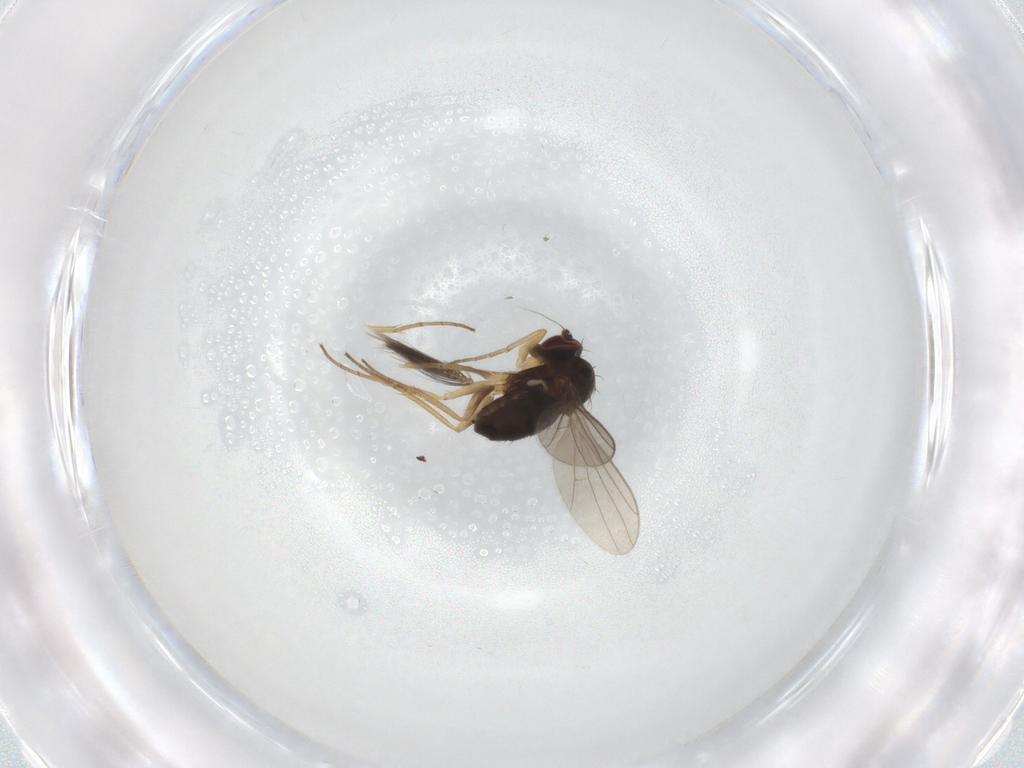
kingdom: Animalia
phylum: Arthropoda
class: Insecta
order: Diptera
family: Dolichopodidae
